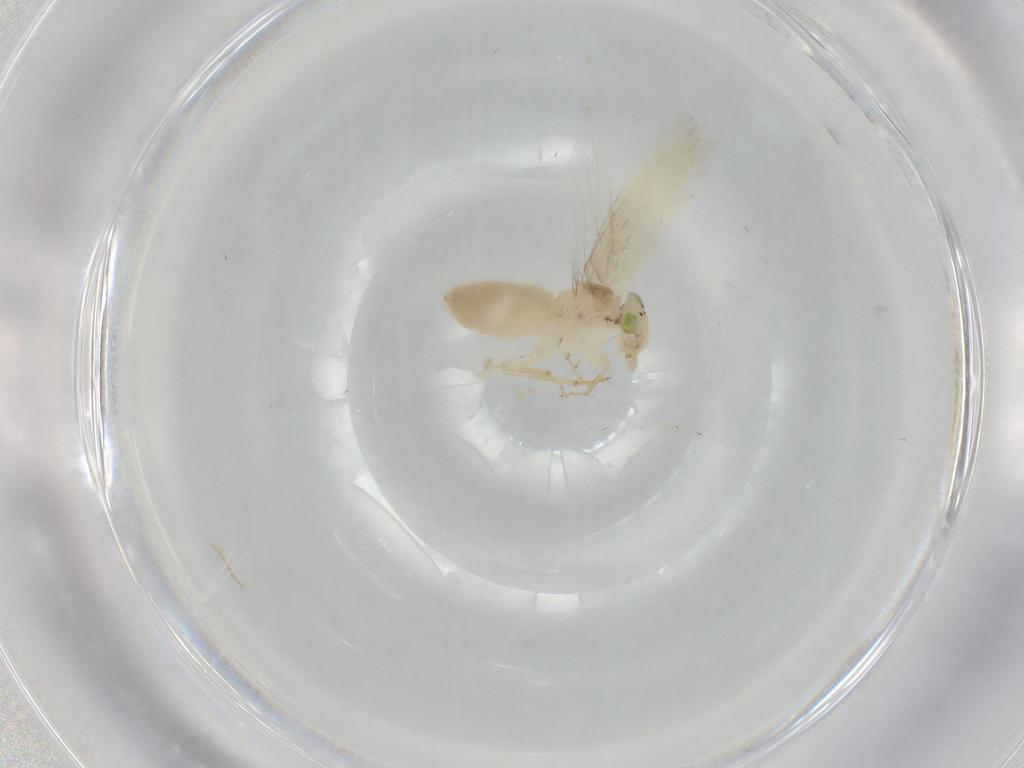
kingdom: Animalia
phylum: Arthropoda
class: Insecta
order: Psocodea
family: Lepidopsocidae
